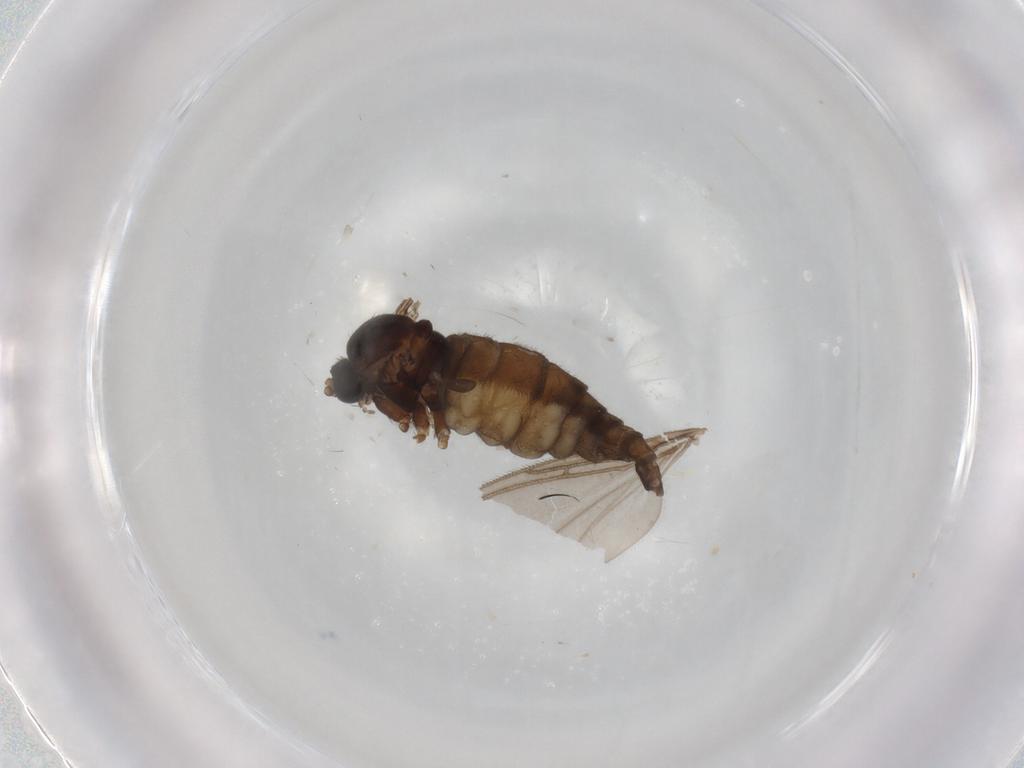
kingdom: Animalia
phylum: Arthropoda
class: Insecta
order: Diptera
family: Sciaridae
